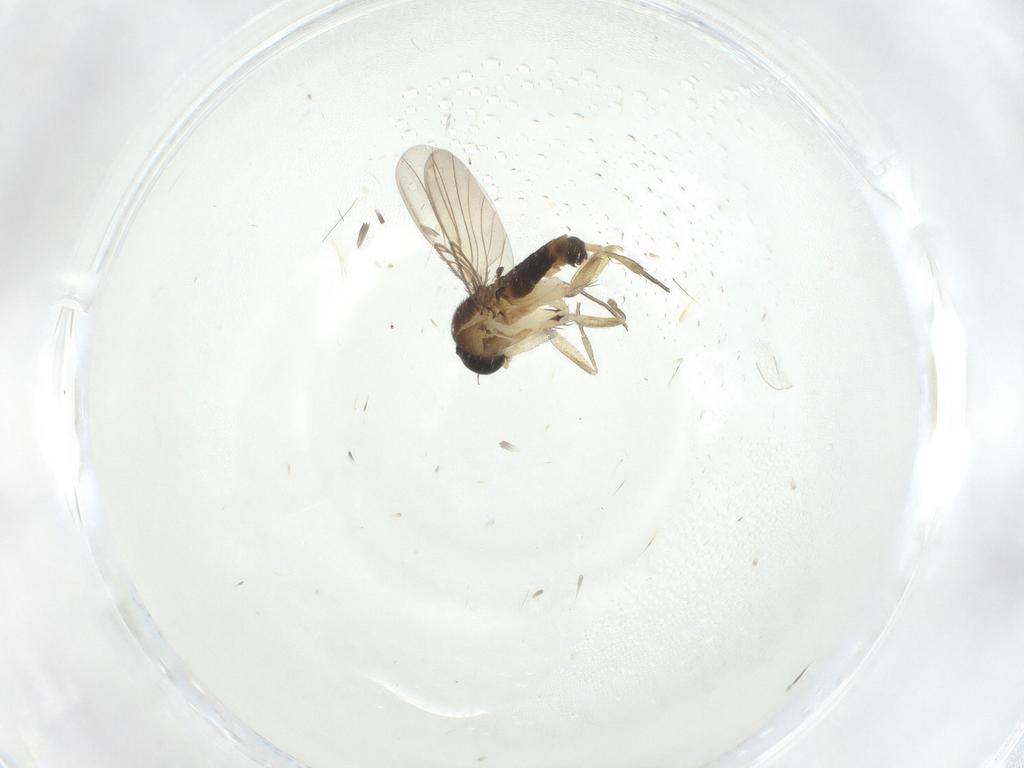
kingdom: Animalia
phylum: Arthropoda
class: Insecta
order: Diptera
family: Phoridae
